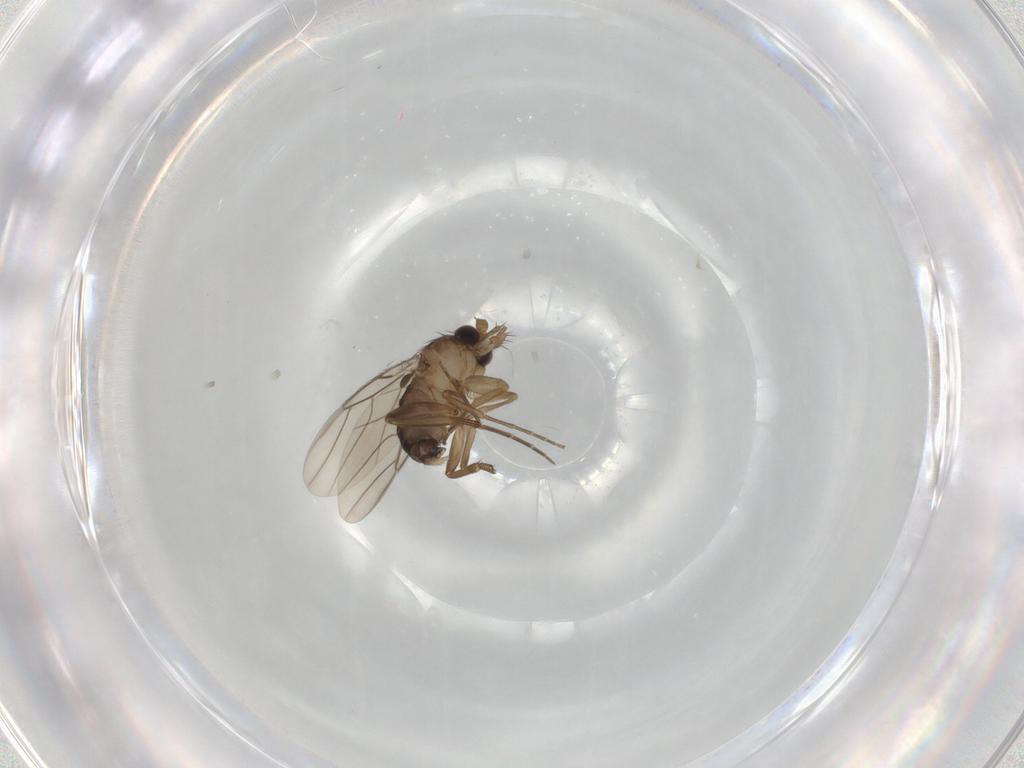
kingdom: Animalia
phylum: Arthropoda
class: Insecta
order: Diptera
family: Phoridae
